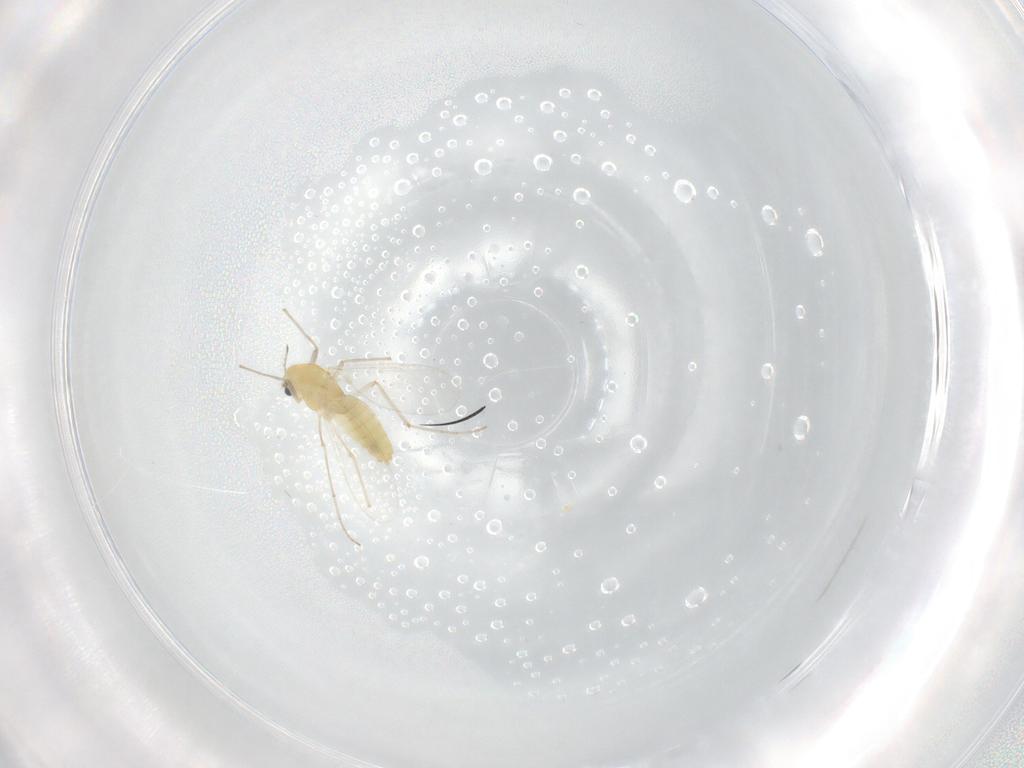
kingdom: Animalia
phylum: Arthropoda
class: Insecta
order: Diptera
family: Chironomidae
